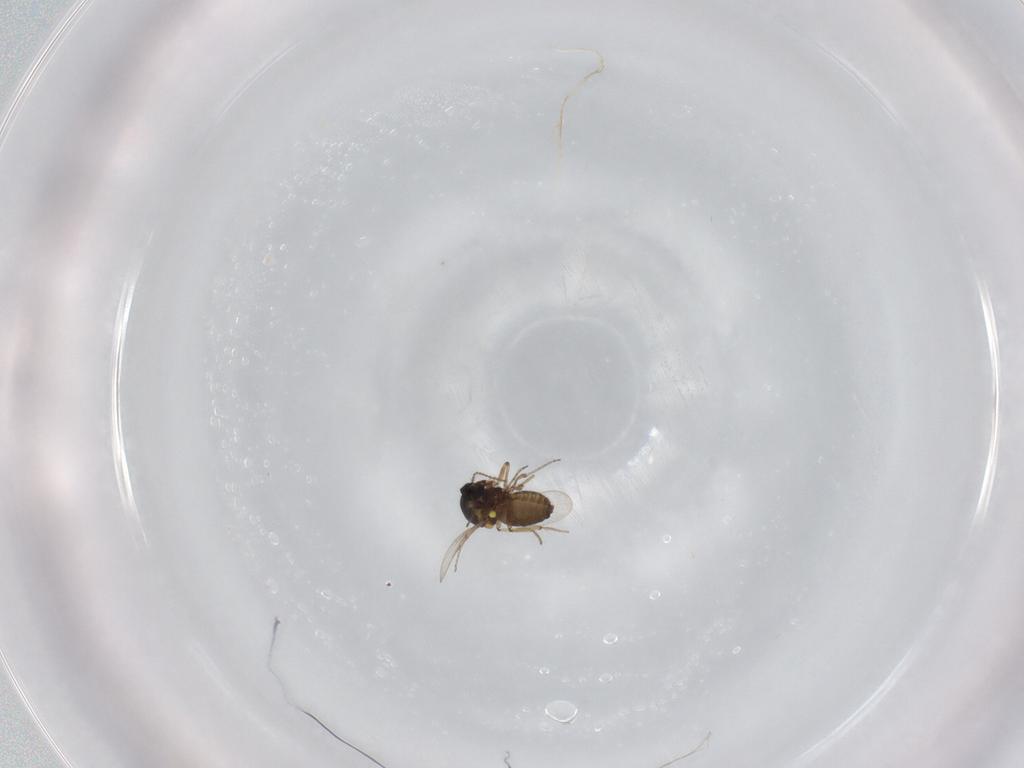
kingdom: Animalia
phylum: Arthropoda
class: Insecta
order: Diptera
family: Ceratopogonidae
